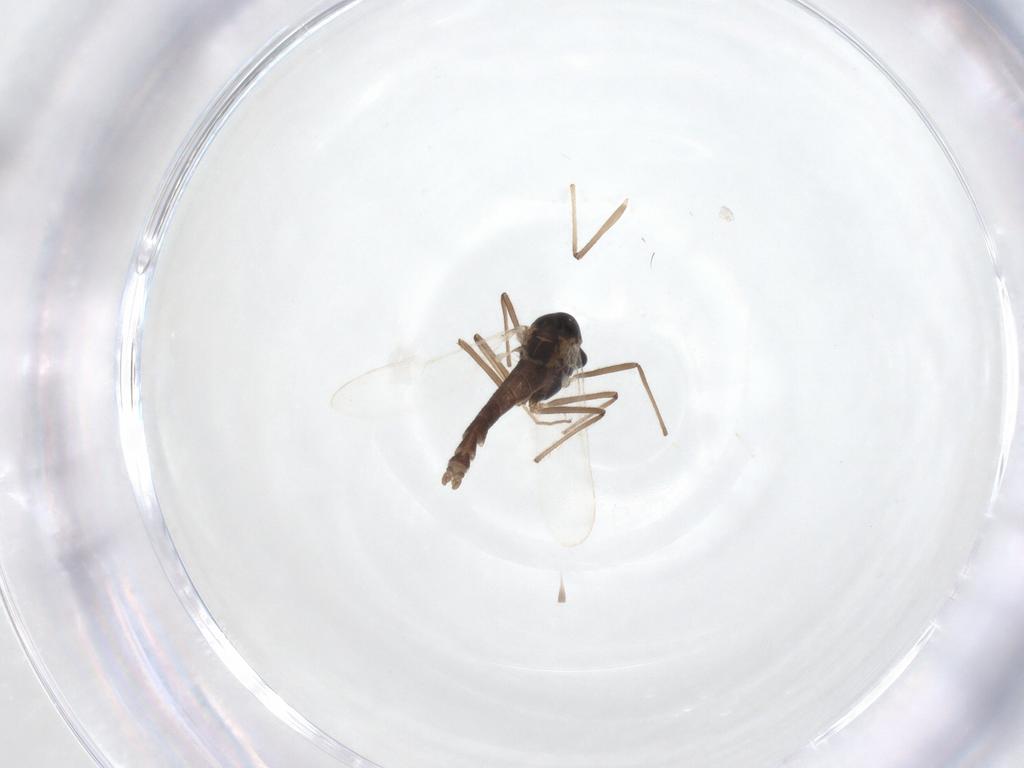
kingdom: Animalia
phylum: Arthropoda
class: Insecta
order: Diptera
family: Chironomidae
